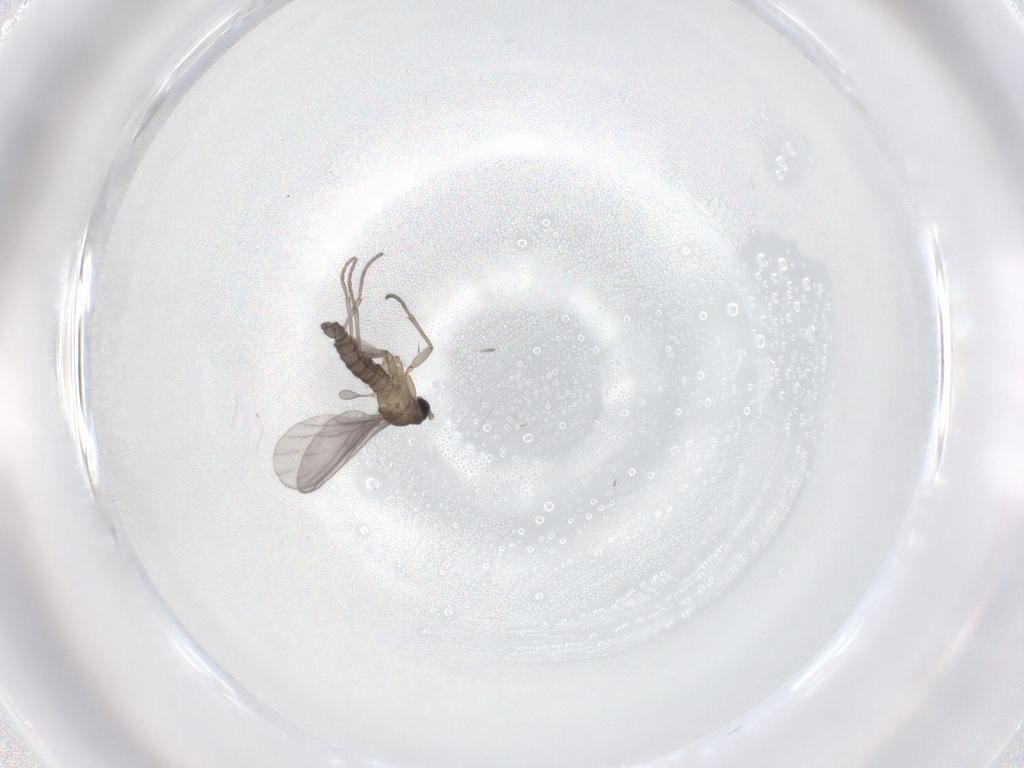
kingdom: Animalia
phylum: Arthropoda
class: Insecta
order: Diptera
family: Sciaridae
